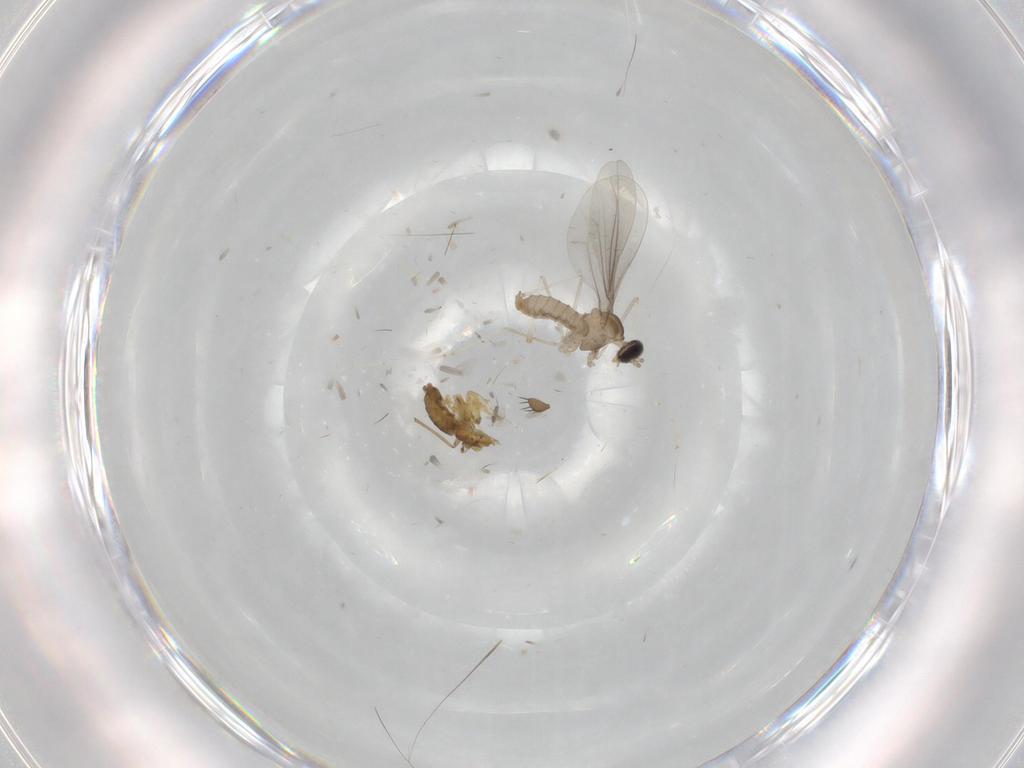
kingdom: Animalia
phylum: Arthropoda
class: Insecta
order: Diptera
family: Cecidomyiidae
